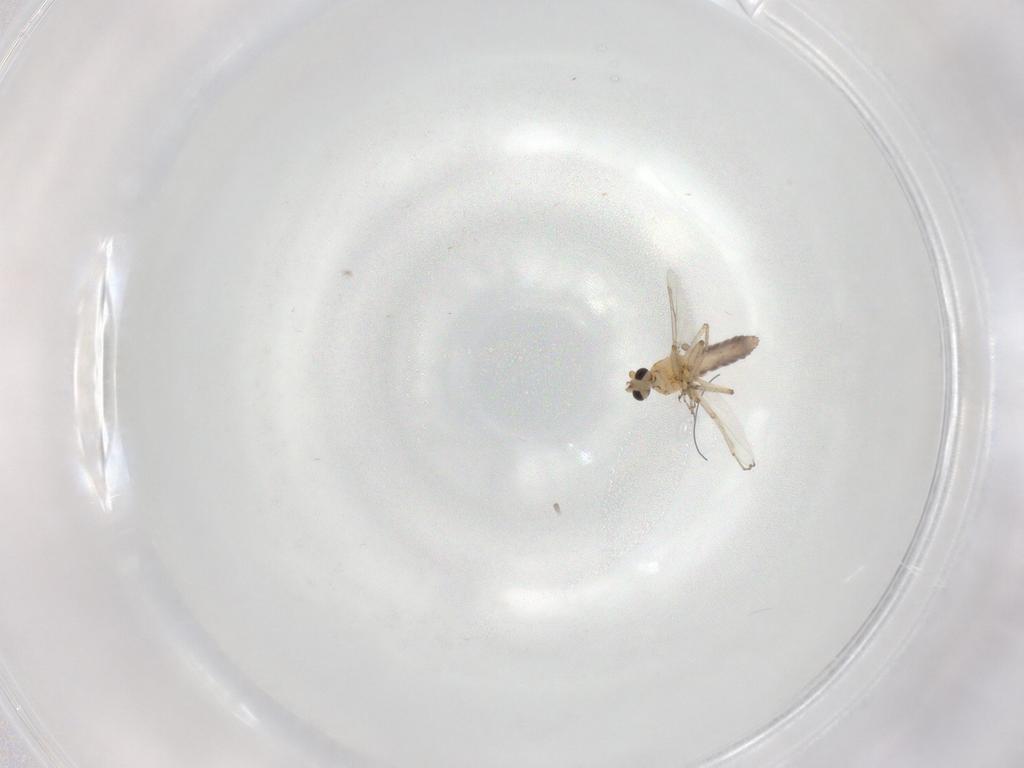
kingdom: Animalia
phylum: Arthropoda
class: Insecta
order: Diptera
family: Ceratopogonidae
